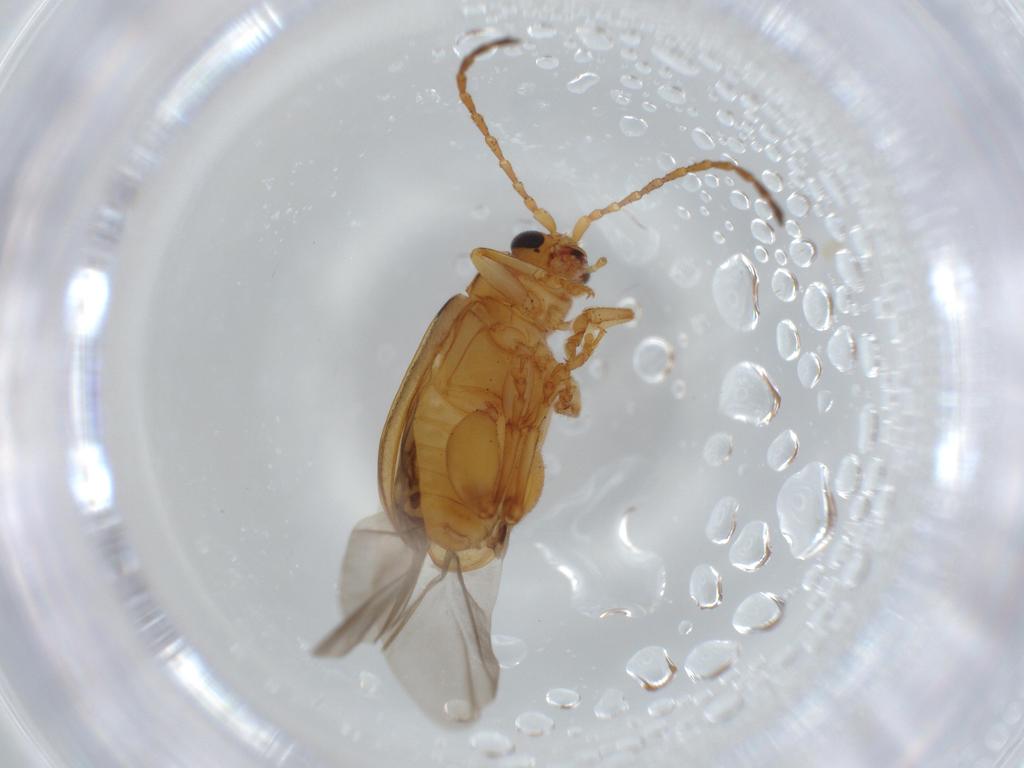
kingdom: Animalia
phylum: Arthropoda
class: Insecta
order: Coleoptera
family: Chrysomelidae
